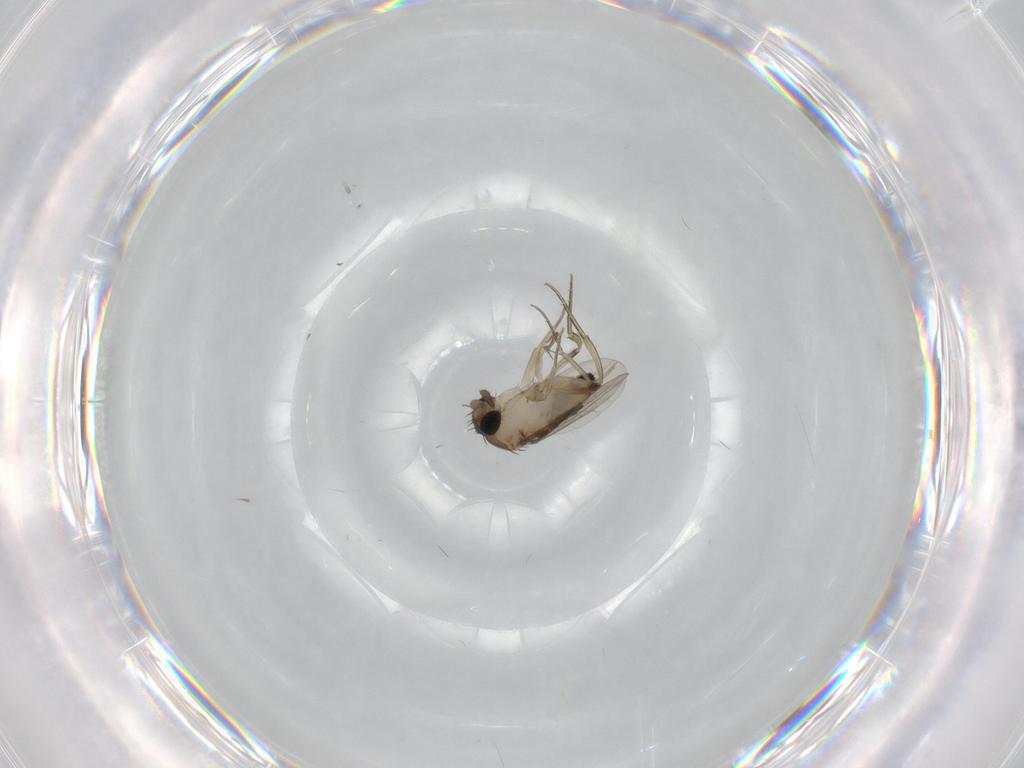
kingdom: Animalia
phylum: Arthropoda
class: Insecta
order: Diptera
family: Phoridae
